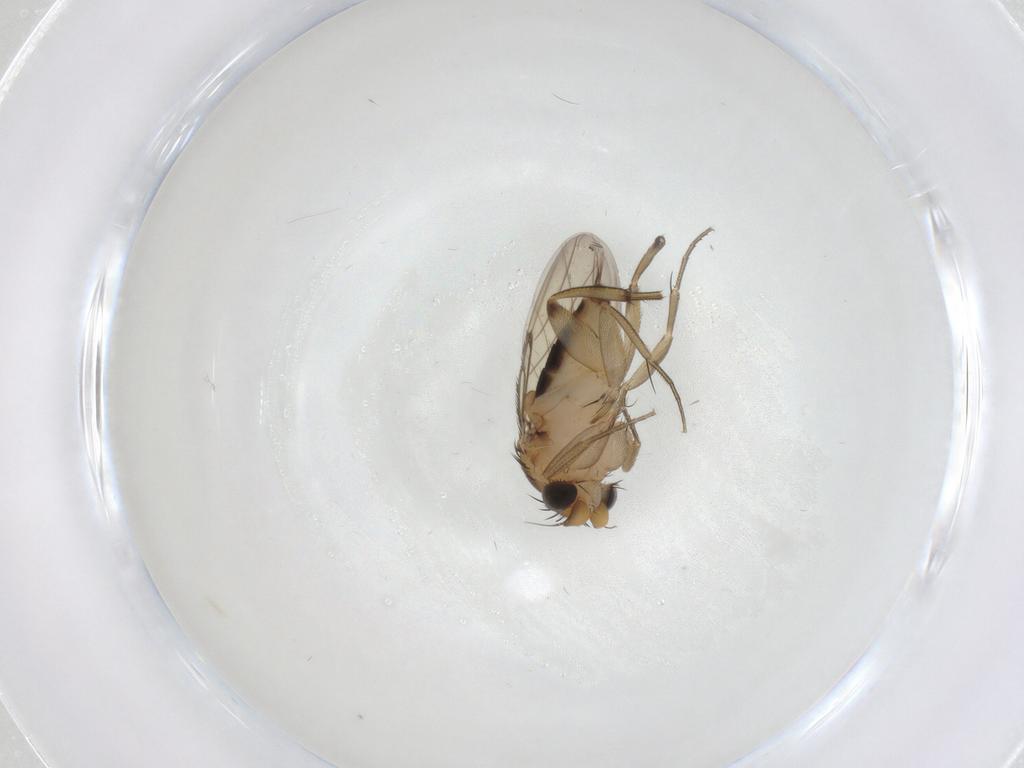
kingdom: Animalia
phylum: Arthropoda
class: Insecta
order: Diptera
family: Limoniidae
